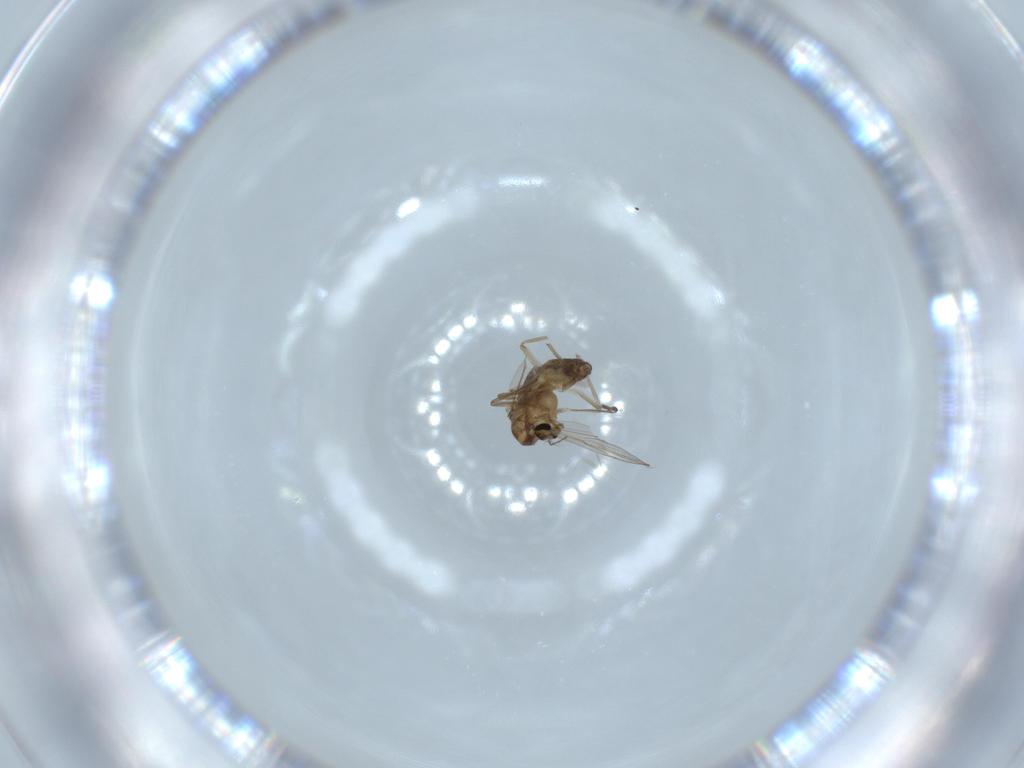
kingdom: Animalia
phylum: Arthropoda
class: Insecta
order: Diptera
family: Chironomidae
